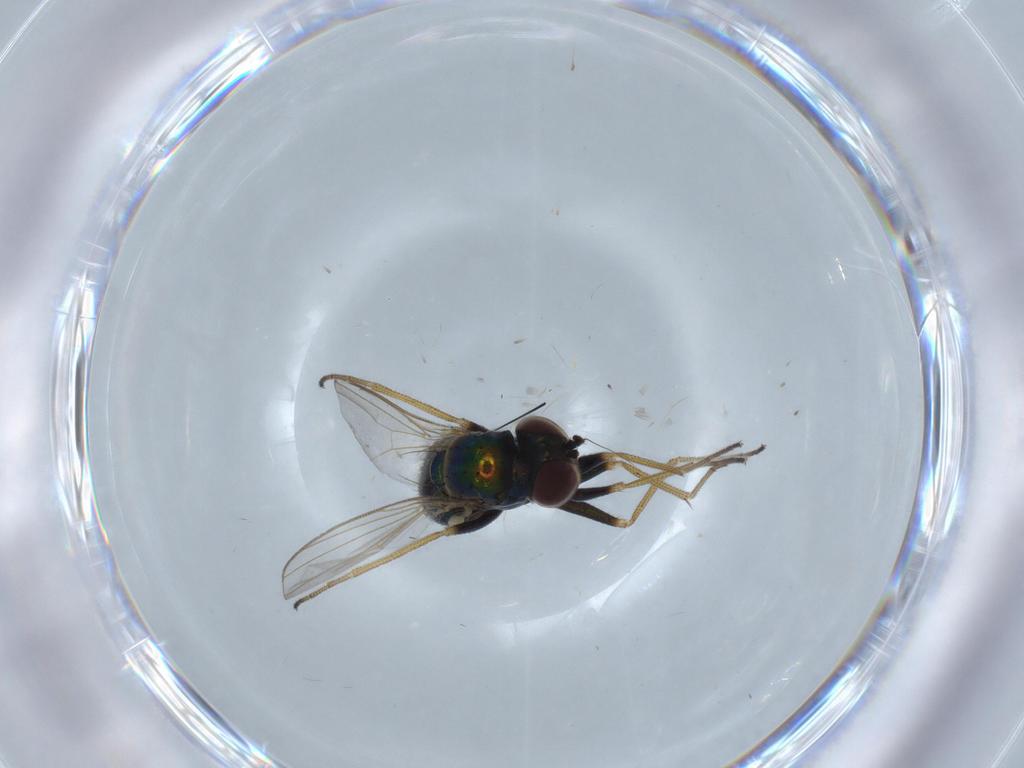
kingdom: Animalia
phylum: Arthropoda
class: Insecta
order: Diptera
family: Dolichopodidae
